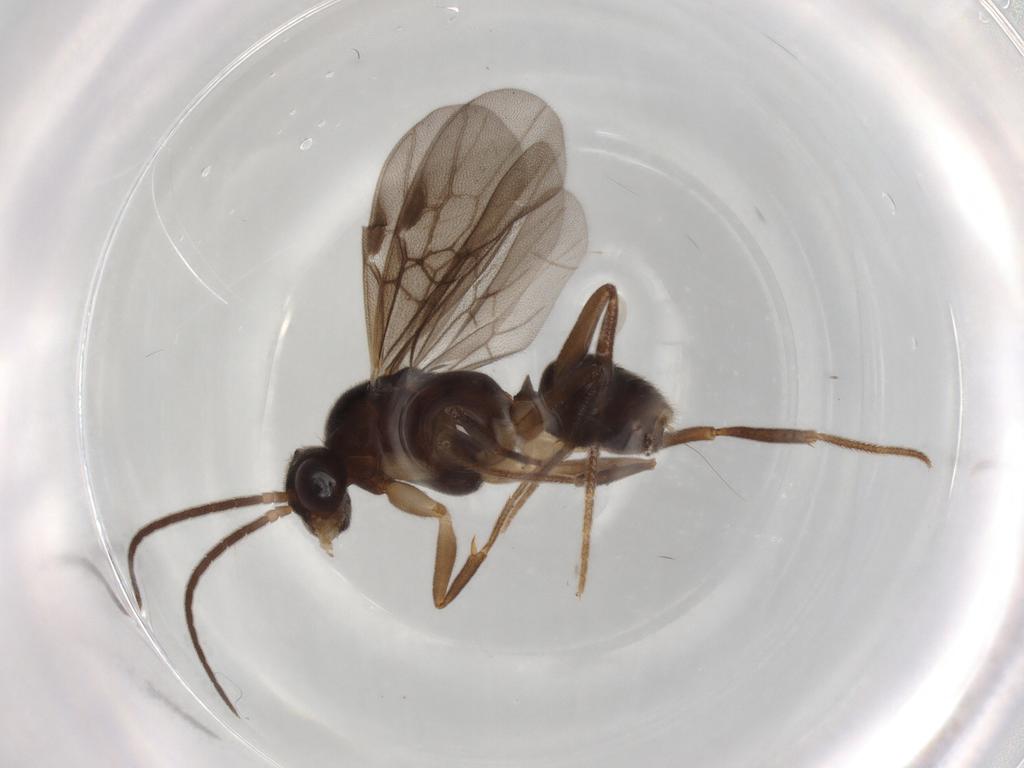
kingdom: Animalia
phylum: Arthropoda
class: Insecta
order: Hymenoptera
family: Formicidae
